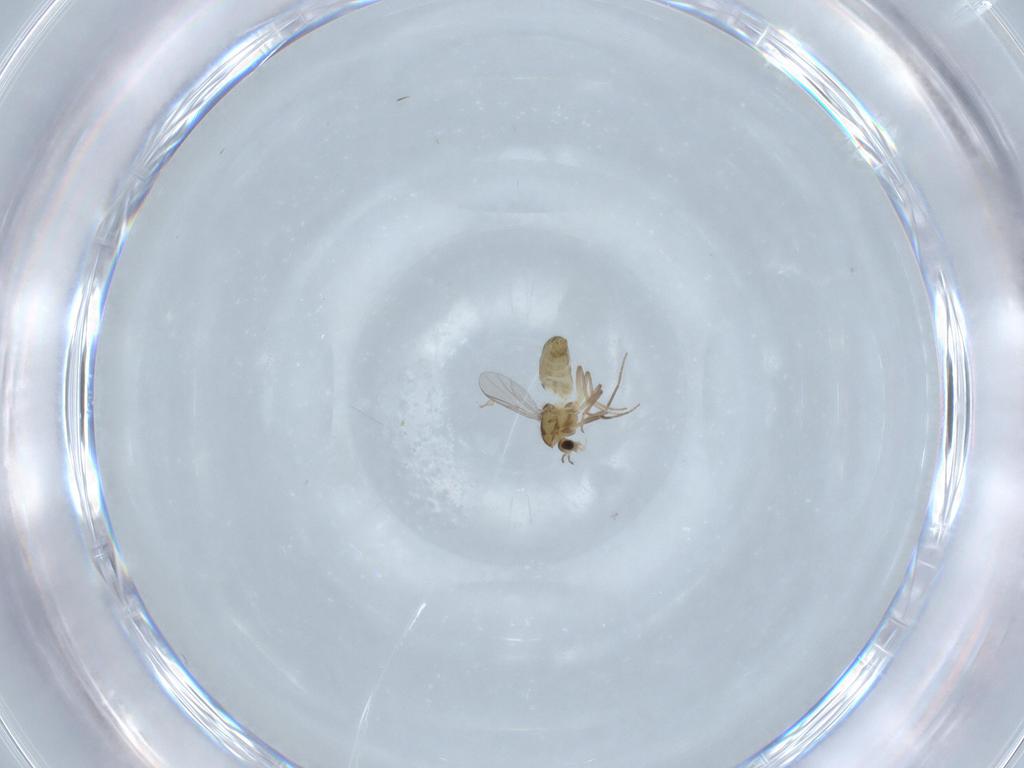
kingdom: Animalia
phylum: Arthropoda
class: Insecta
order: Diptera
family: Chironomidae
